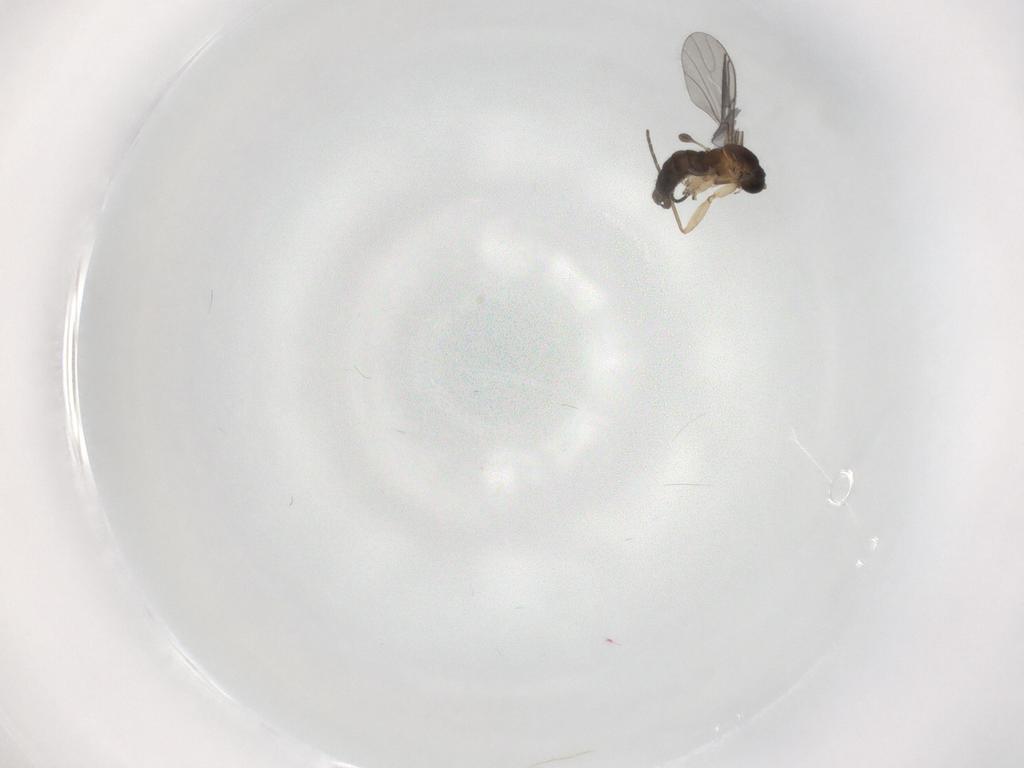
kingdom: Animalia
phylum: Arthropoda
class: Insecta
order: Diptera
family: Sciaridae
